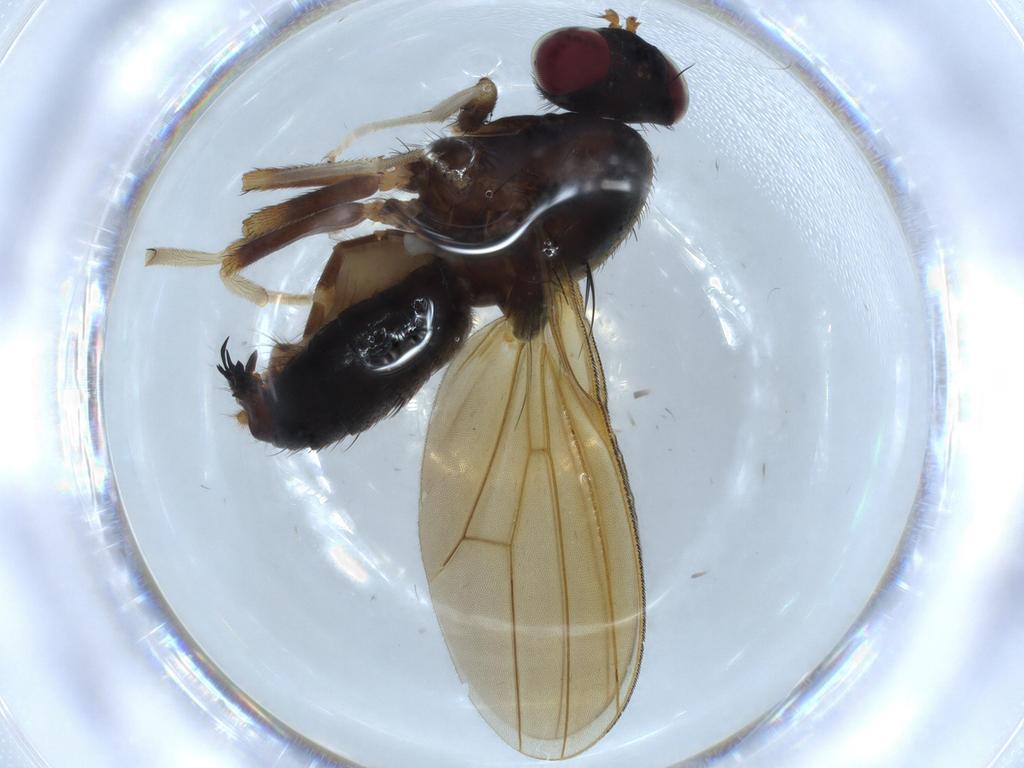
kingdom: Animalia
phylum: Arthropoda
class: Insecta
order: Diptera
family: Lauxaniidae
